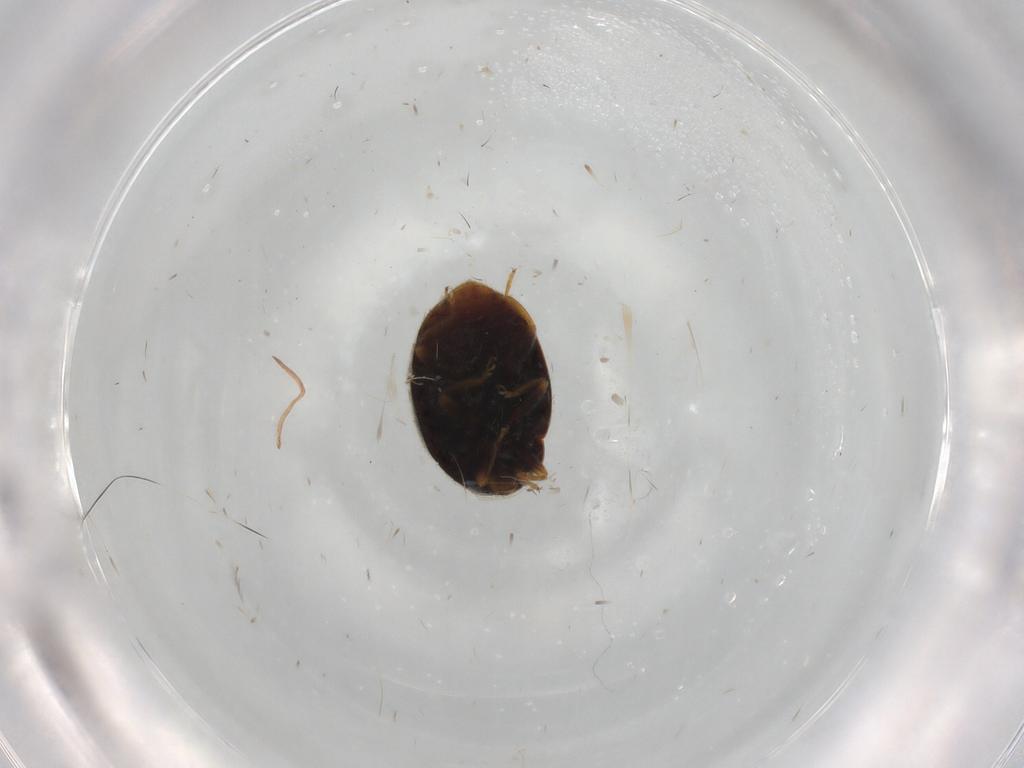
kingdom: Animalia
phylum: Arthropoda
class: Insecta
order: Coleoptera
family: Coccinellidae
